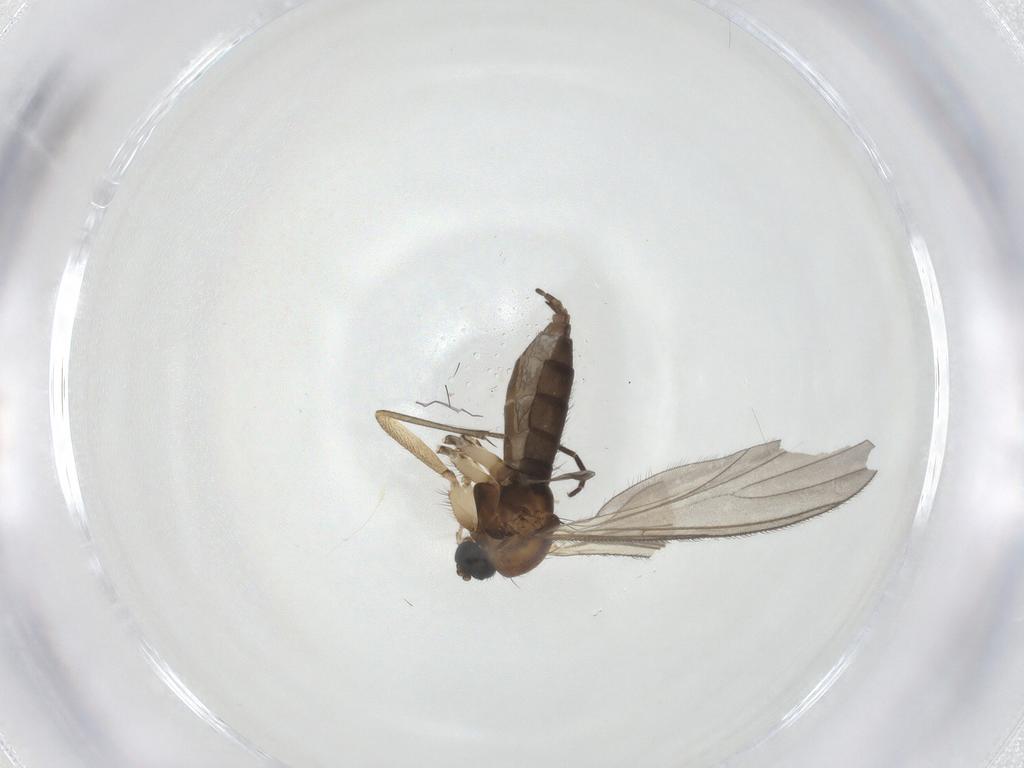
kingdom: Animalia
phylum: Arthropoda
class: Insecta
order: Diptera
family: Sciaridae
